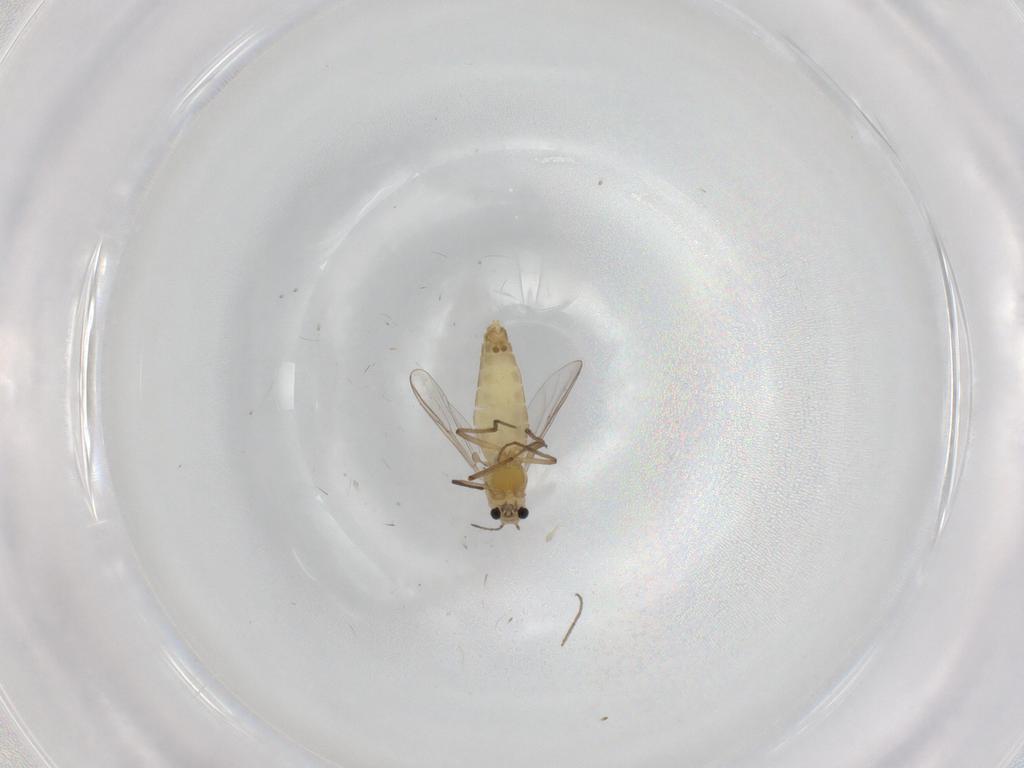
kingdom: Animalia
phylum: Arthropoda
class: Insecta
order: Diptera
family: Chironomidae
